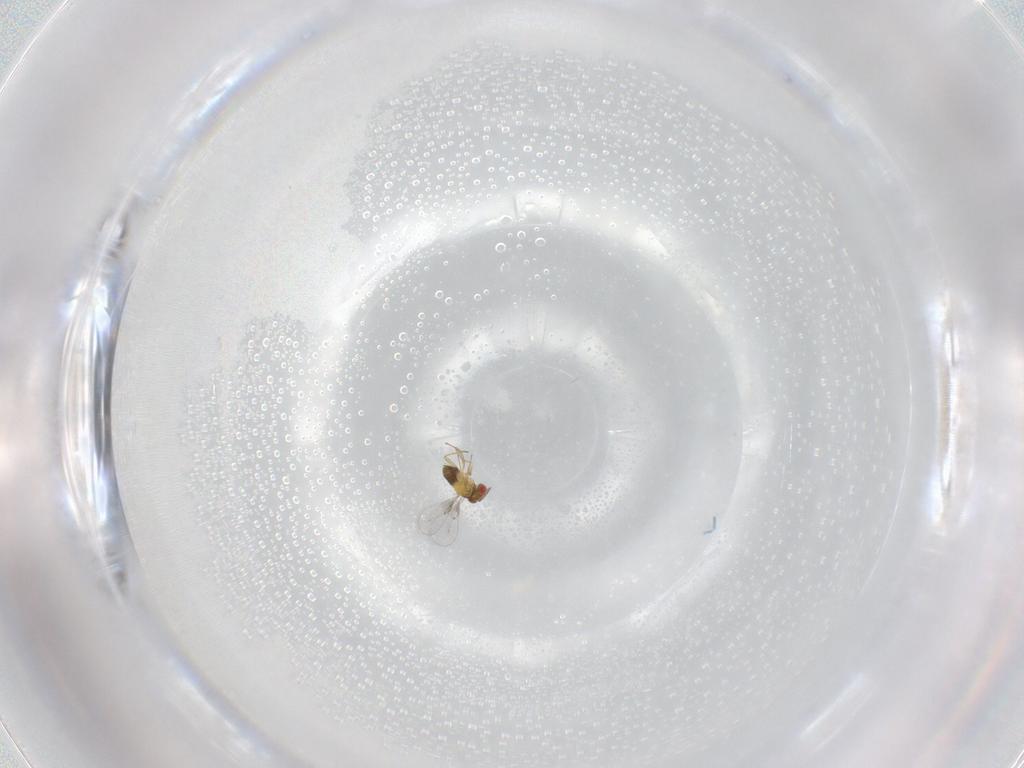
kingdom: Animalia
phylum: Arthropoda
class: Insecta
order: Hymenoptera
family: Trichogrammatidae
